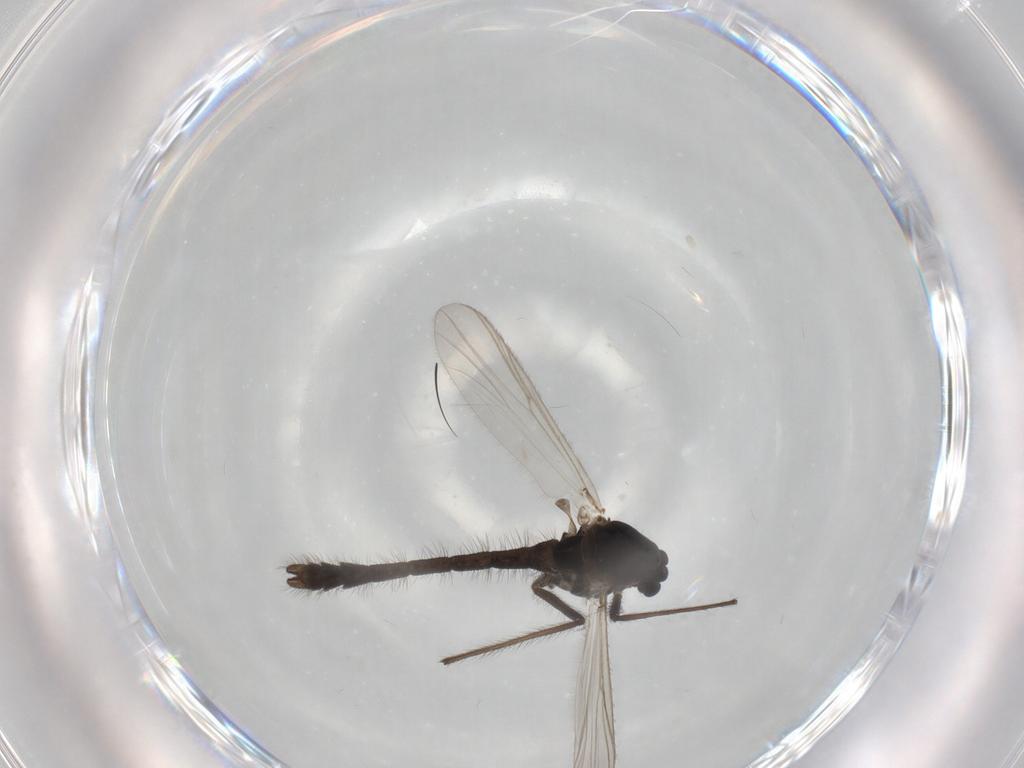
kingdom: Animalia
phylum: Arthropoda
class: Insecta
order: Diptera
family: Chironomidae
